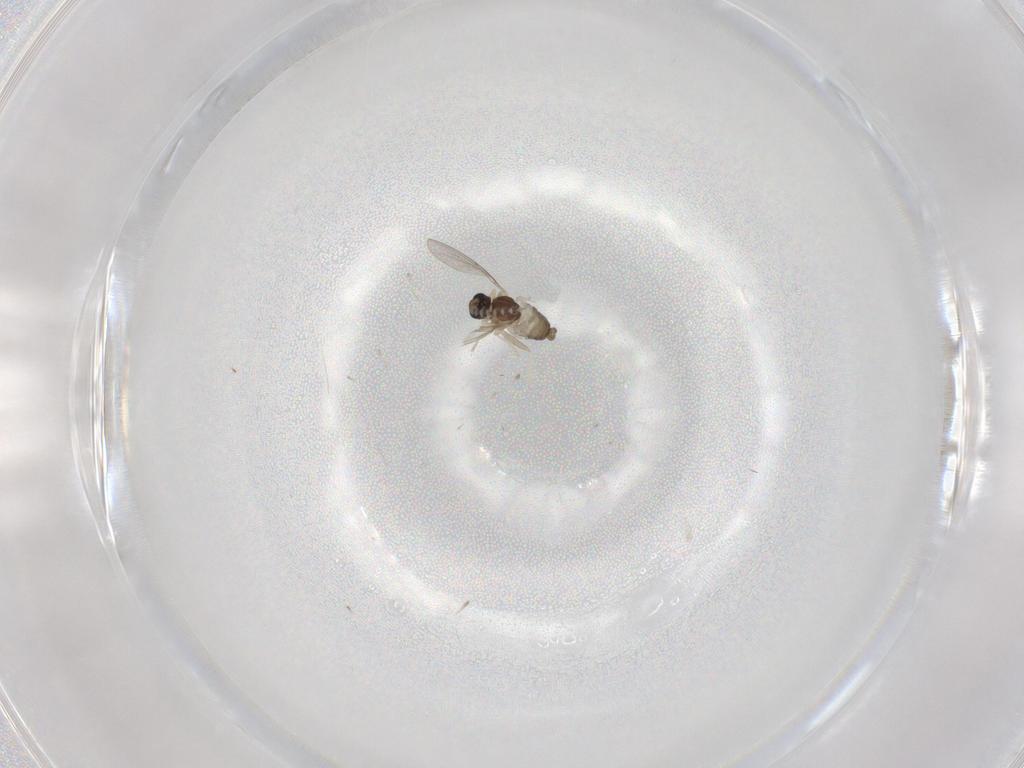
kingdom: Animalia
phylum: Arthropoda
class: Insecta
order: Diptera
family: Cecidomyiidae
